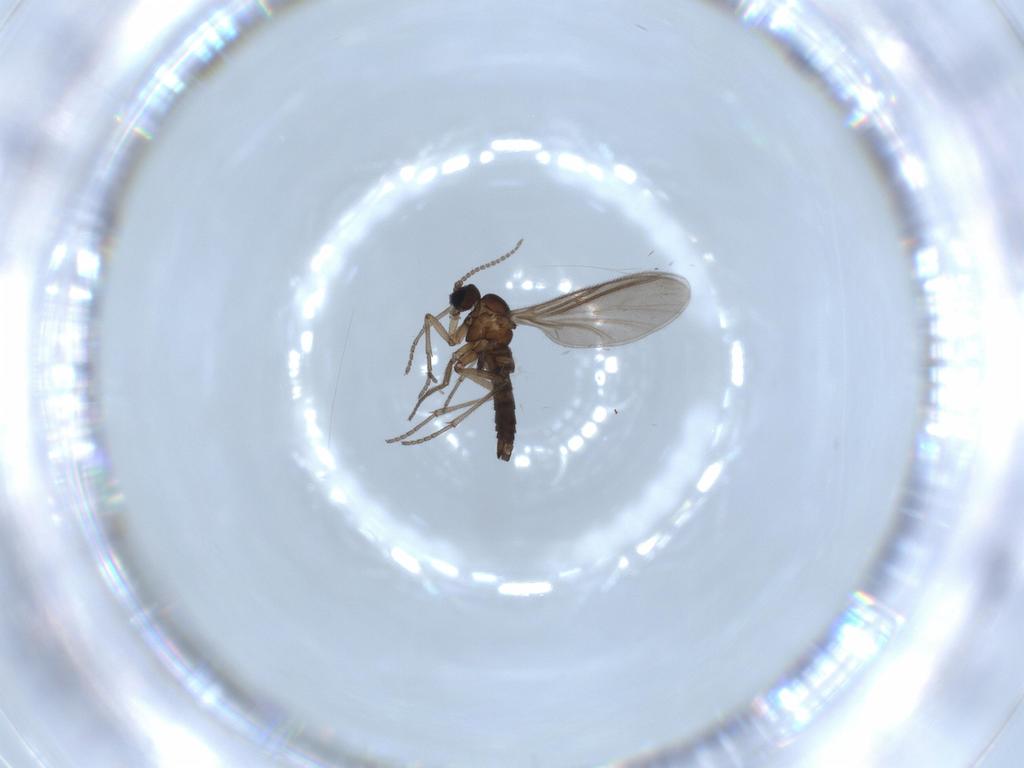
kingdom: Animalia
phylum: Arthropoda
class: Insecta
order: Diptera
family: Sciaridae
